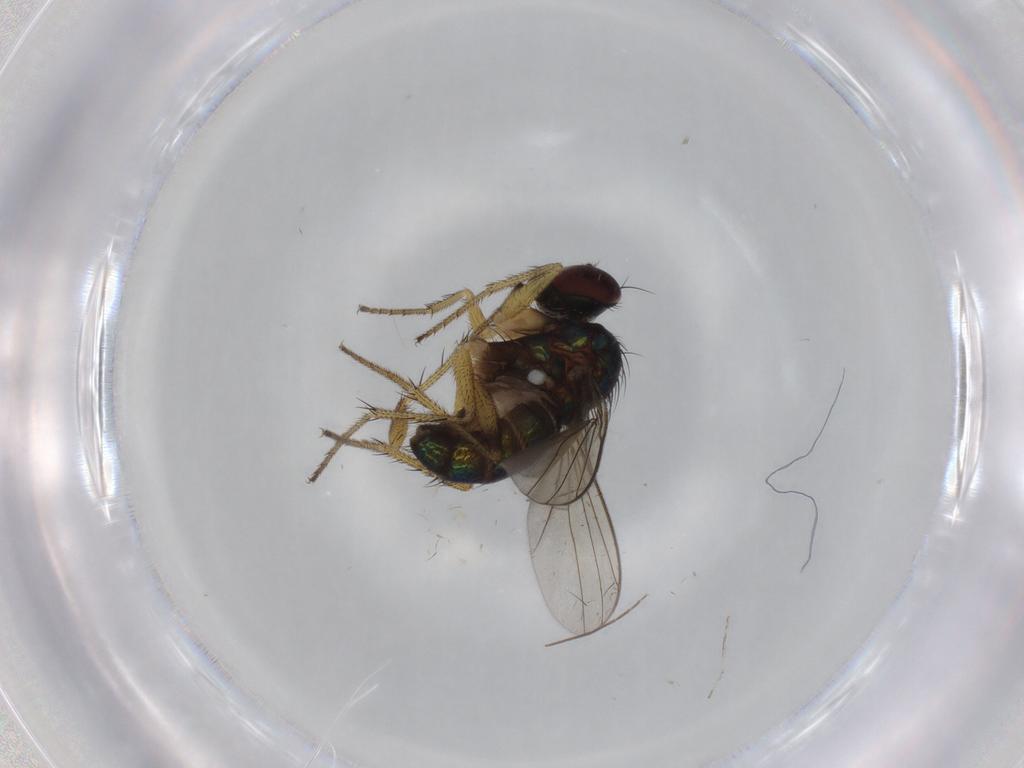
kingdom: Animalia
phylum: Arthropoda
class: Insecta
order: Diptera
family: Dolichopodidae
